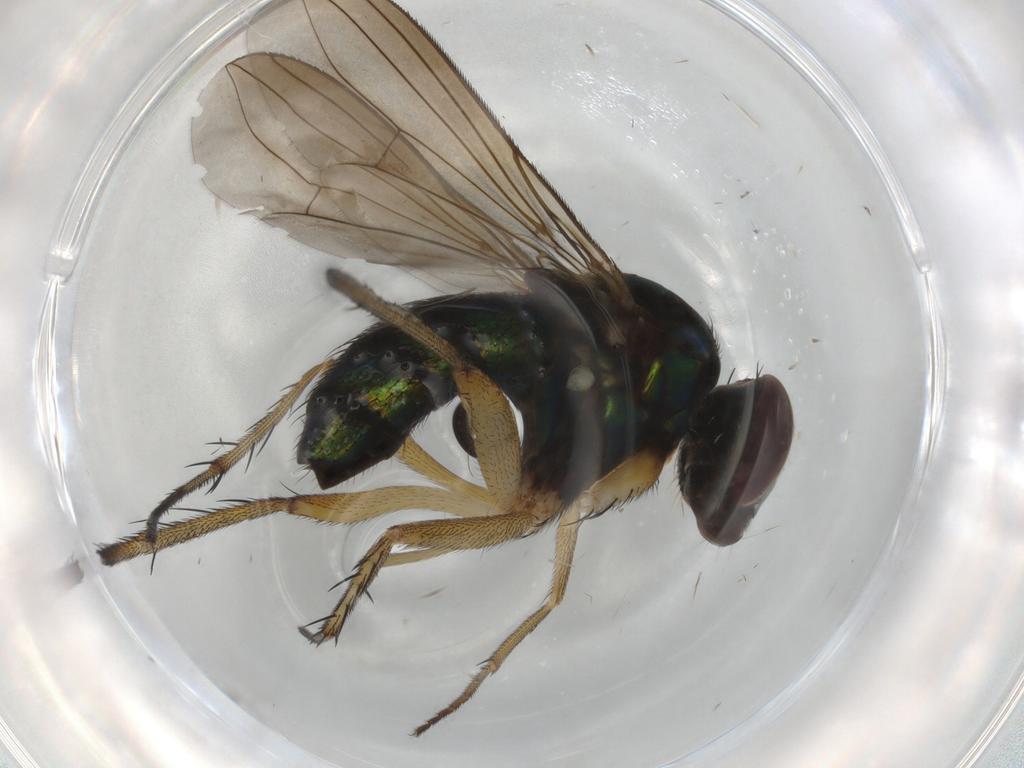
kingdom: Animalia
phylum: Arthropoda
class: Insecta
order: Diptera
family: Dolichopodidae
